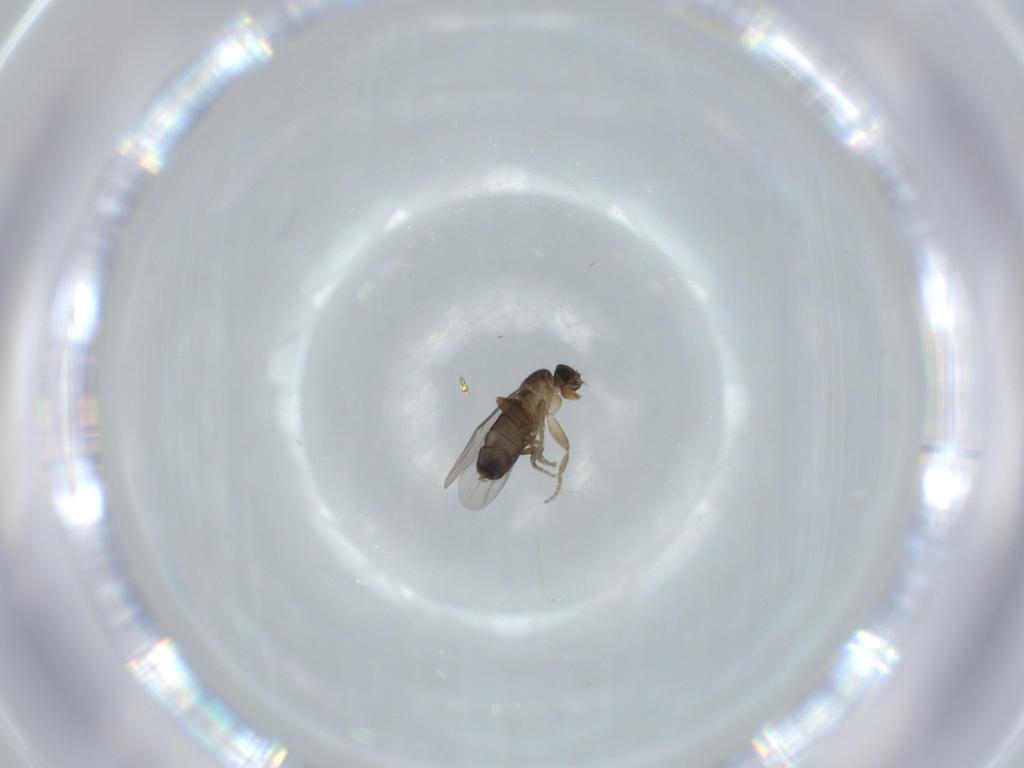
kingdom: Animalia
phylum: Arthropoda
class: Insecta
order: Diptera
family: Phoridae
